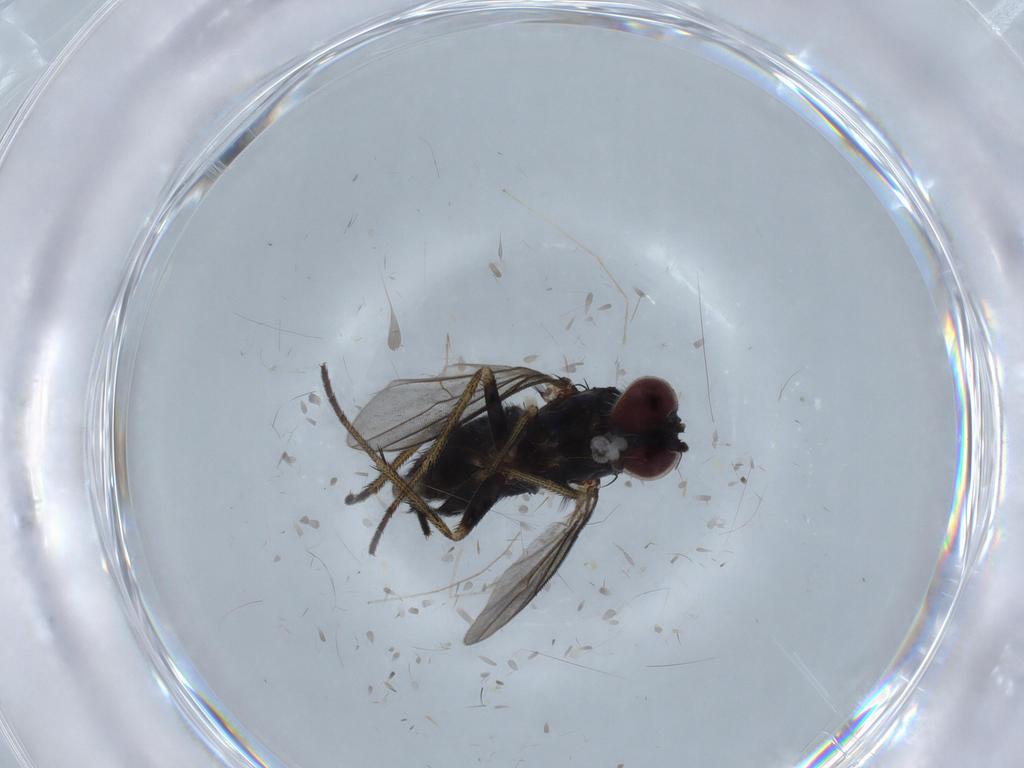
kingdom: Animalia
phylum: Arthropoda
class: Insecta
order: Diptera
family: Dolichopodidae
